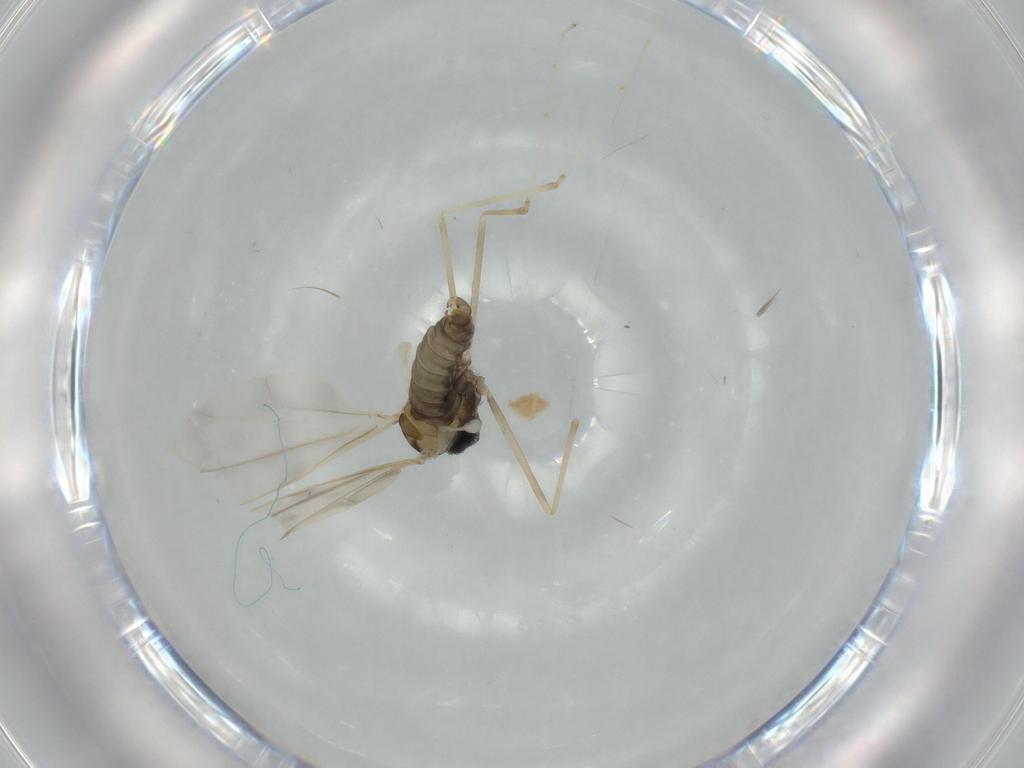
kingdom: Animalia
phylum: Arthropoda
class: Insecta
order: Diptera
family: Cecidomyiidae
